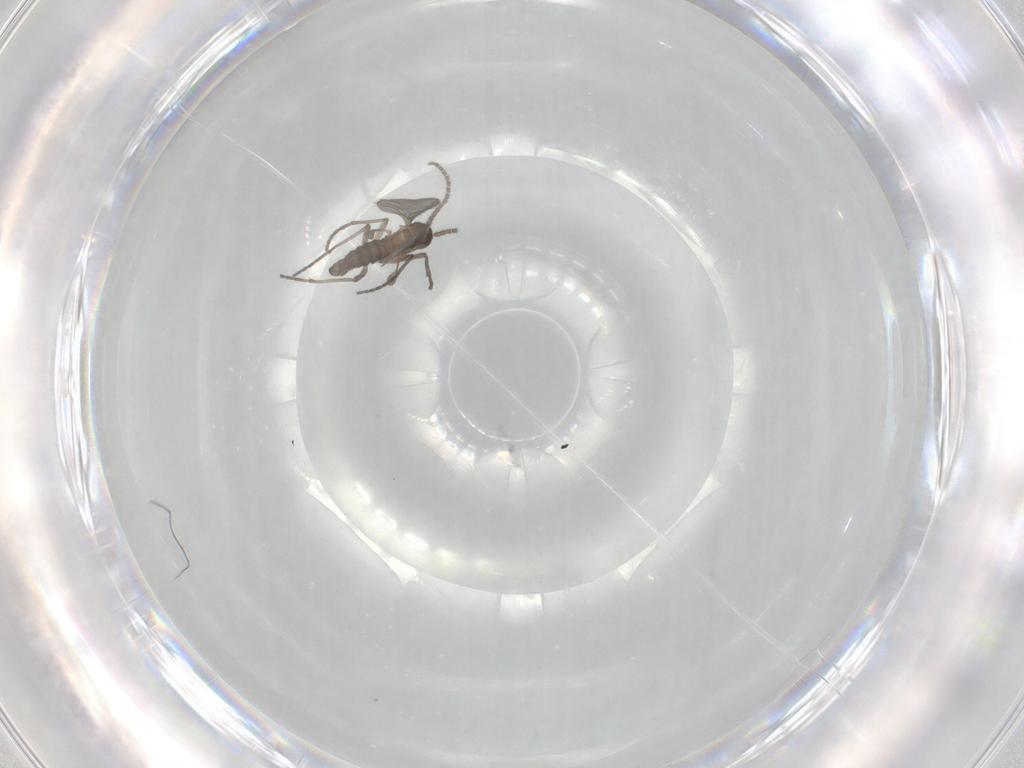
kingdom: Animalia
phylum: Arthropoda
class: Insecta
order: Diptera
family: Sciaridae
